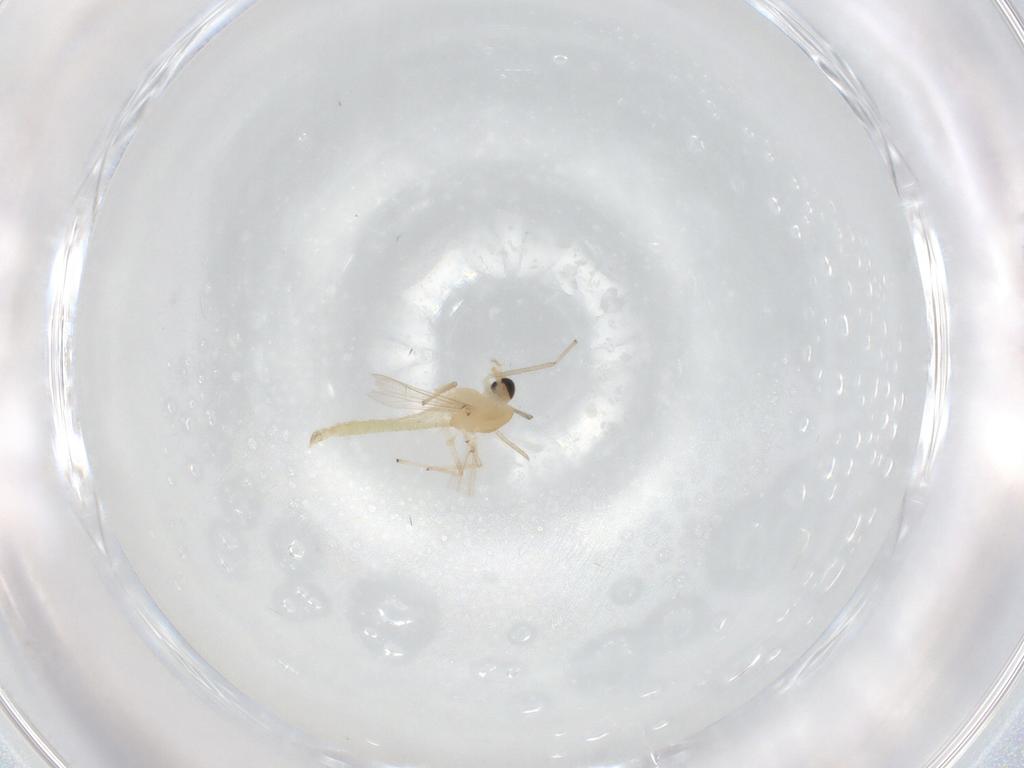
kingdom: Animalia
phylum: Arthropoda
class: Insecta
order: Diptera
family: Chironomidae
